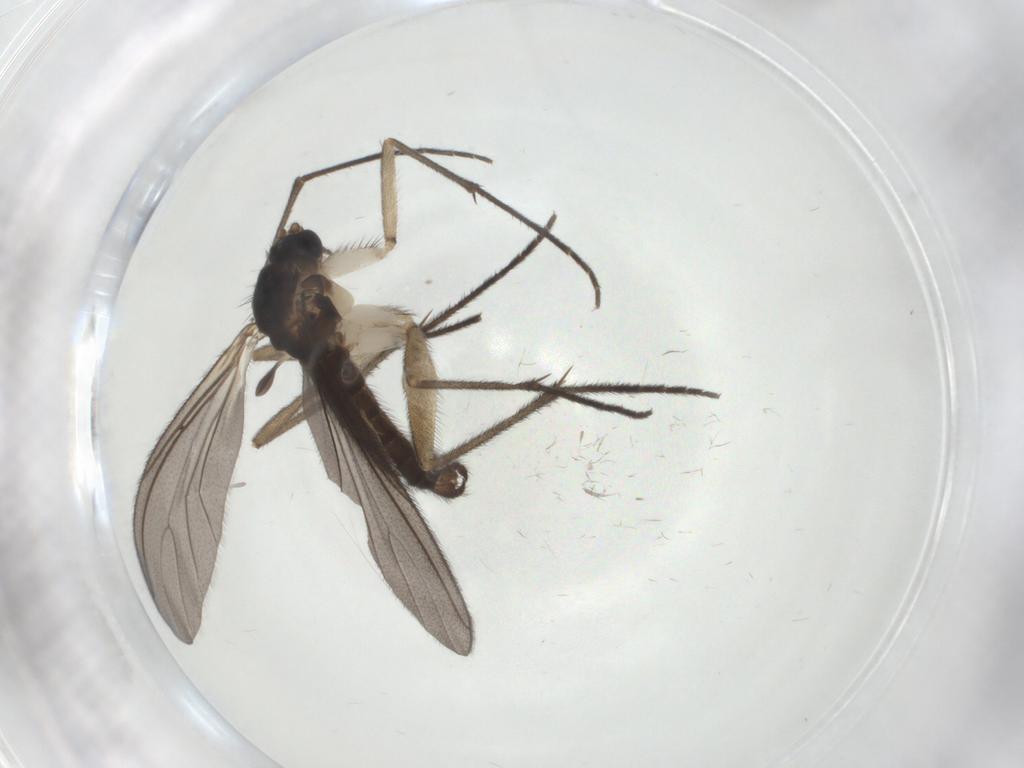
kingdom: Animalia
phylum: Arthropoda
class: Insecta
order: Diptera
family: Sciaridae
